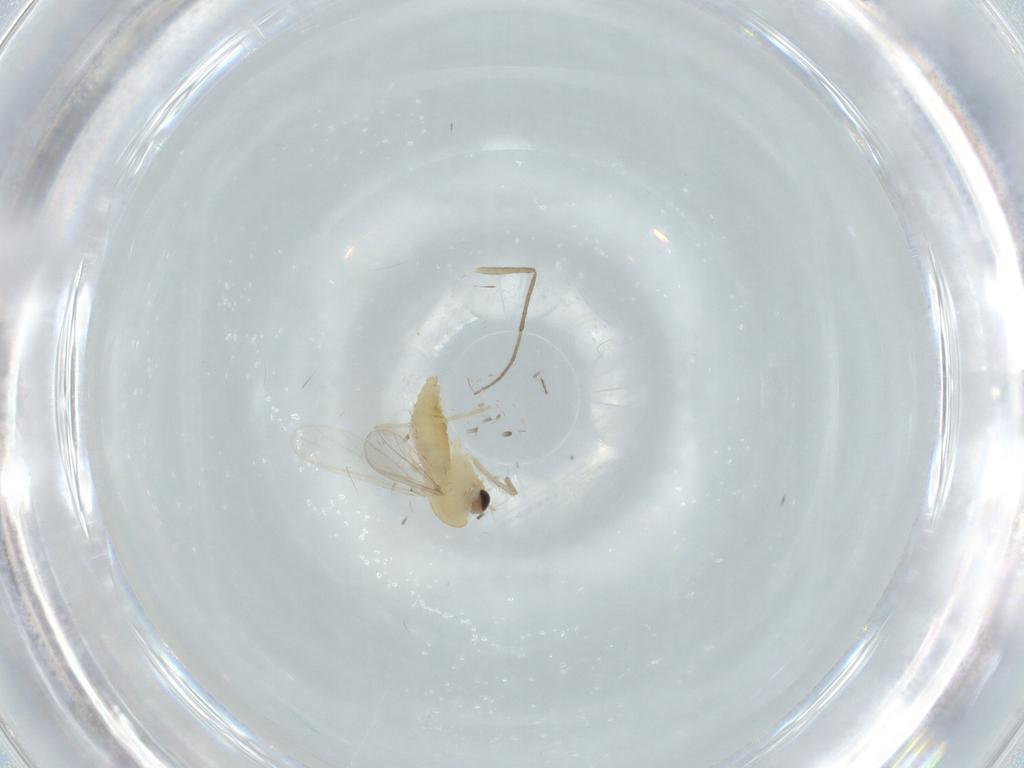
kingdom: Animalia
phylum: Arthropoda
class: Insecta
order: Diptera
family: Chironomidae
